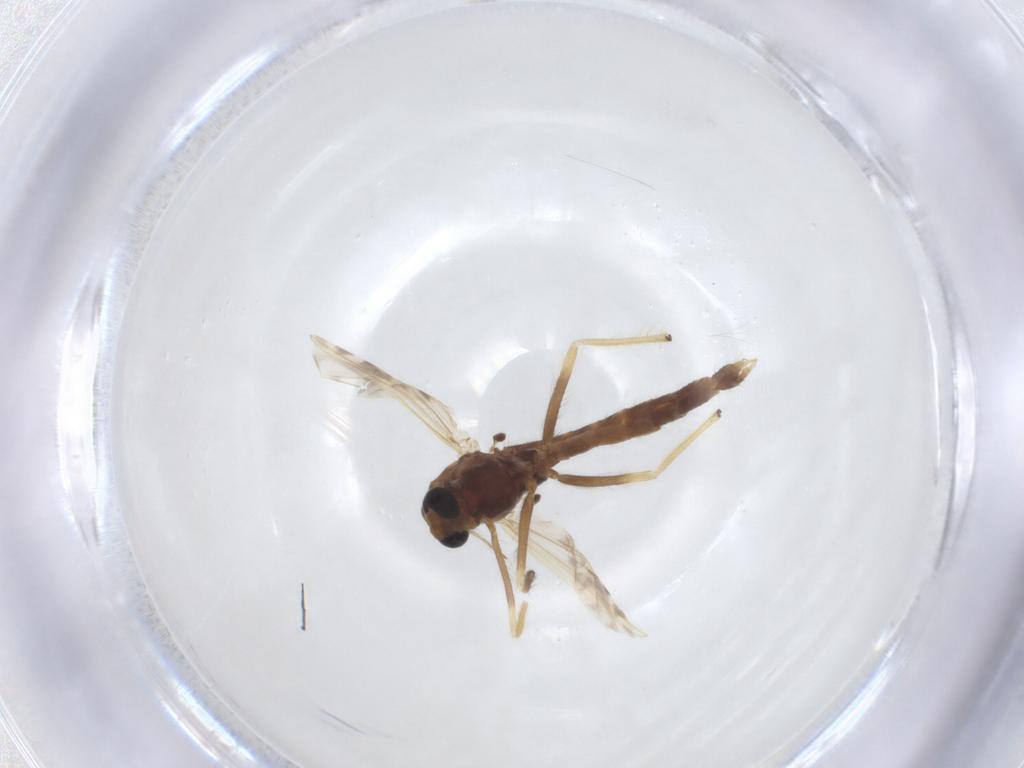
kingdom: Animalia
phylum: Arthropoda
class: Insecta
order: Diptera
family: Chironomidae
